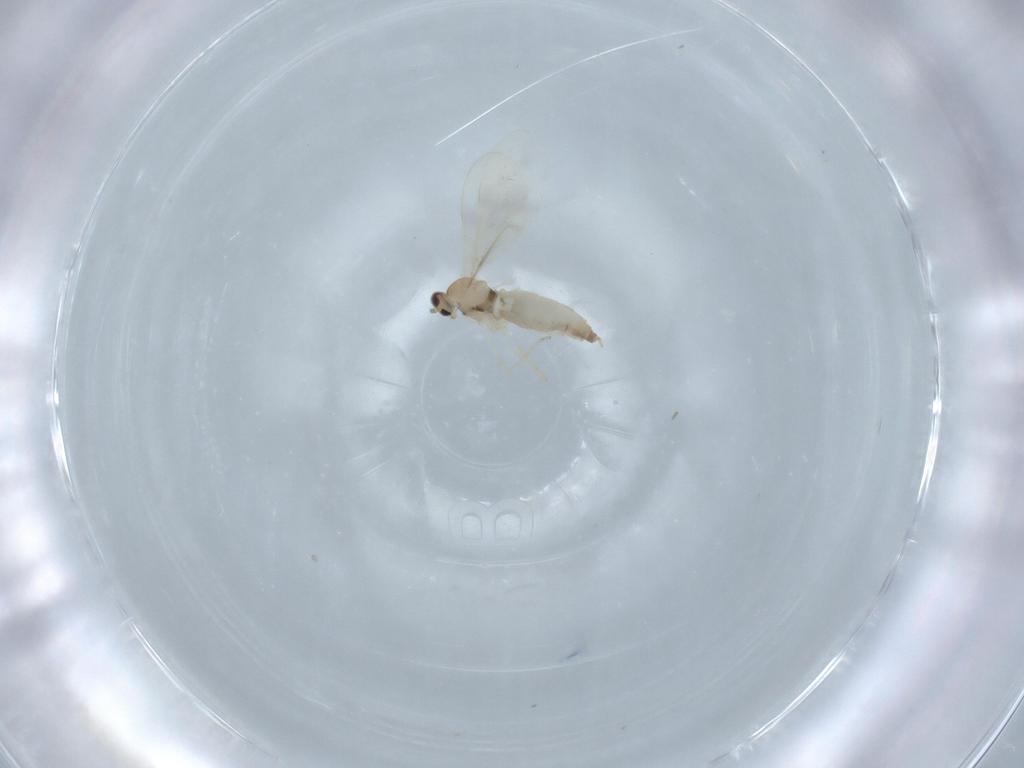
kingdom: Animalia
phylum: Arthropoda
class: Insecta
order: Diptera
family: Cecidomyiidae
